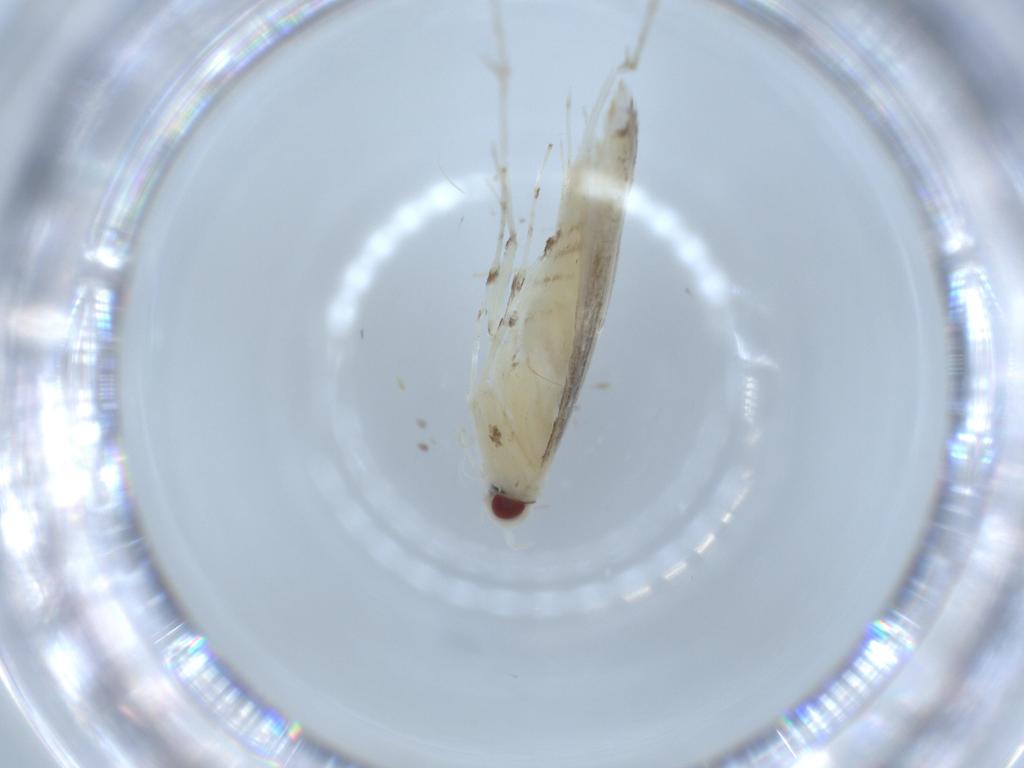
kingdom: Animalia
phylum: Arthropoda
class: Insecta
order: Lepidoptera
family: Gracillariidae
